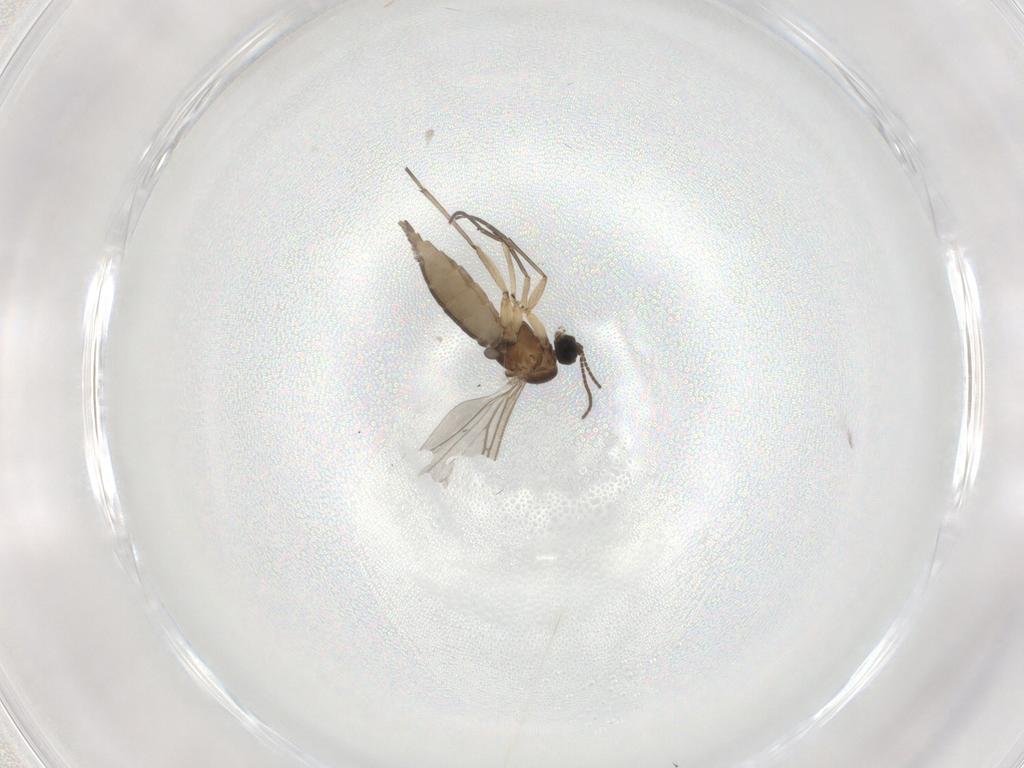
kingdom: Animalia
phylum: Arthropoda
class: Insecta
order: Diptera
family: Sciaridae
